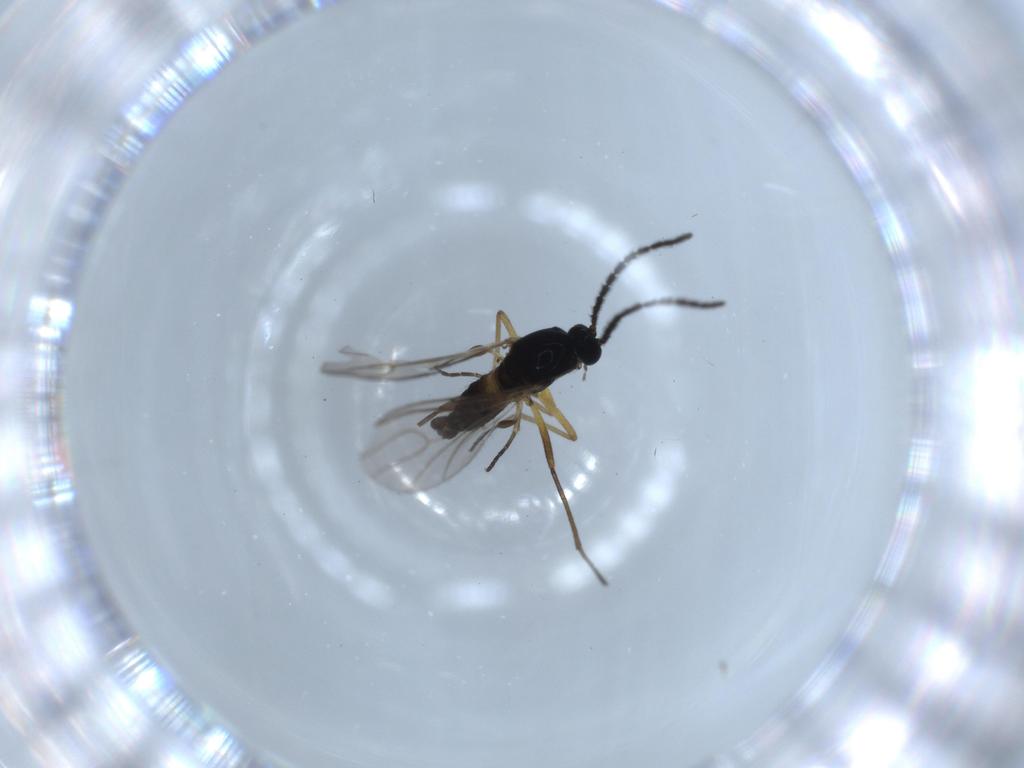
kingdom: Animalia
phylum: Arthropoda
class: Insecta
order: Diptera
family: Sciaridae
